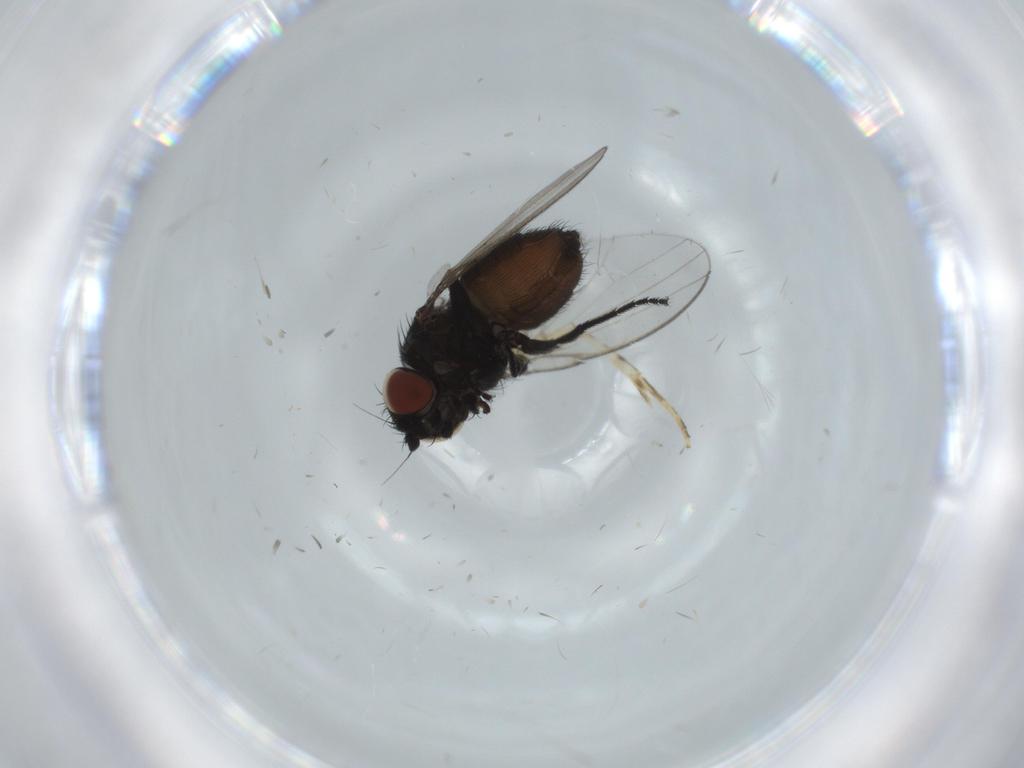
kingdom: Animalia
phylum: Arthropoda
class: Insecta
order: Diptera
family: Milichiidae
